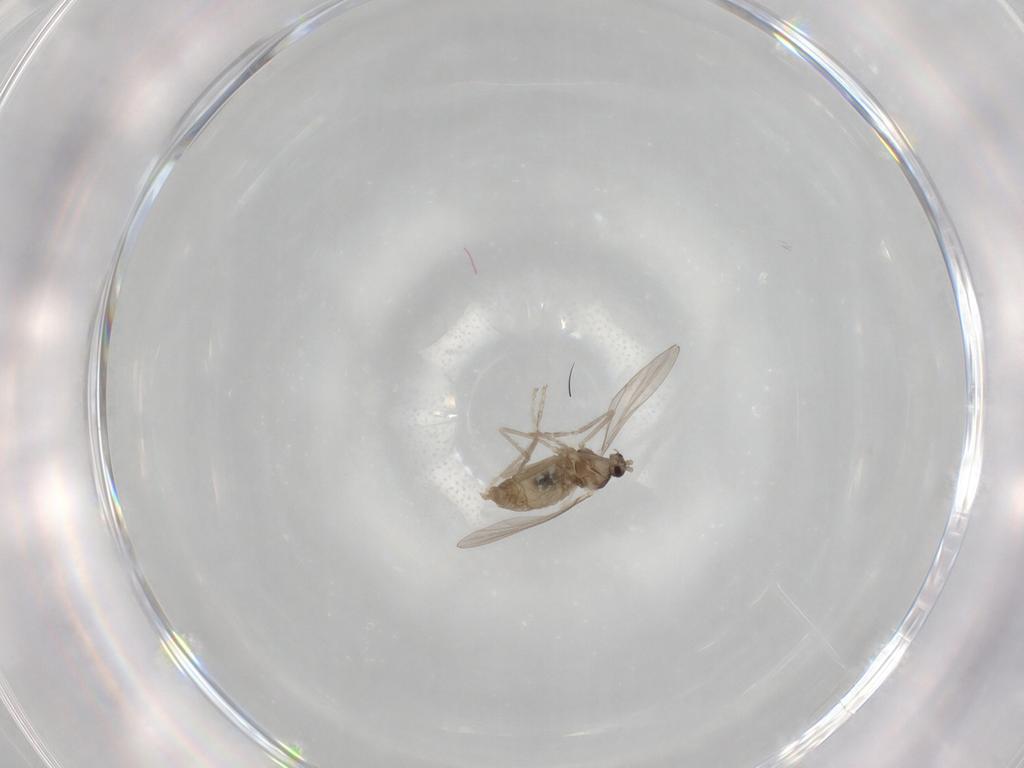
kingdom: Animalia
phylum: Arthropoda
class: Insecta
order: Diptera
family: Cecidomyiidae
